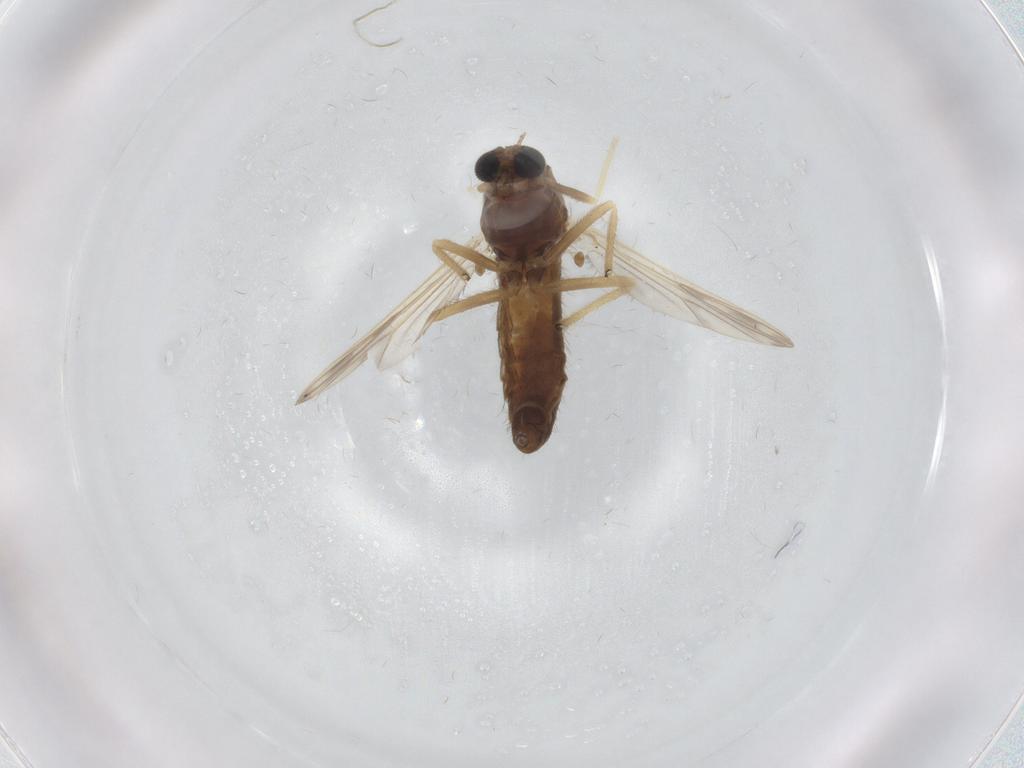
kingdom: Animalia
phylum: Arthropoda
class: Insecta
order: Diptera
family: Chironomidae
